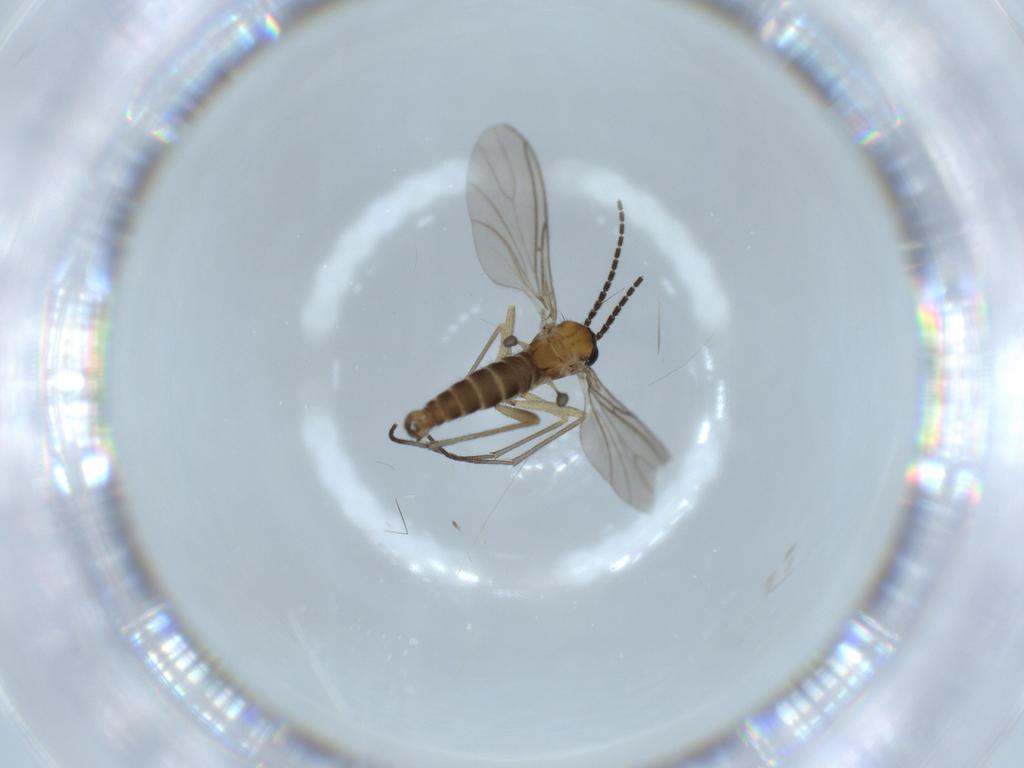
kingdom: Animalia
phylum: Arthropoda
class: Insecta
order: Diptera
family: Sciaridae
